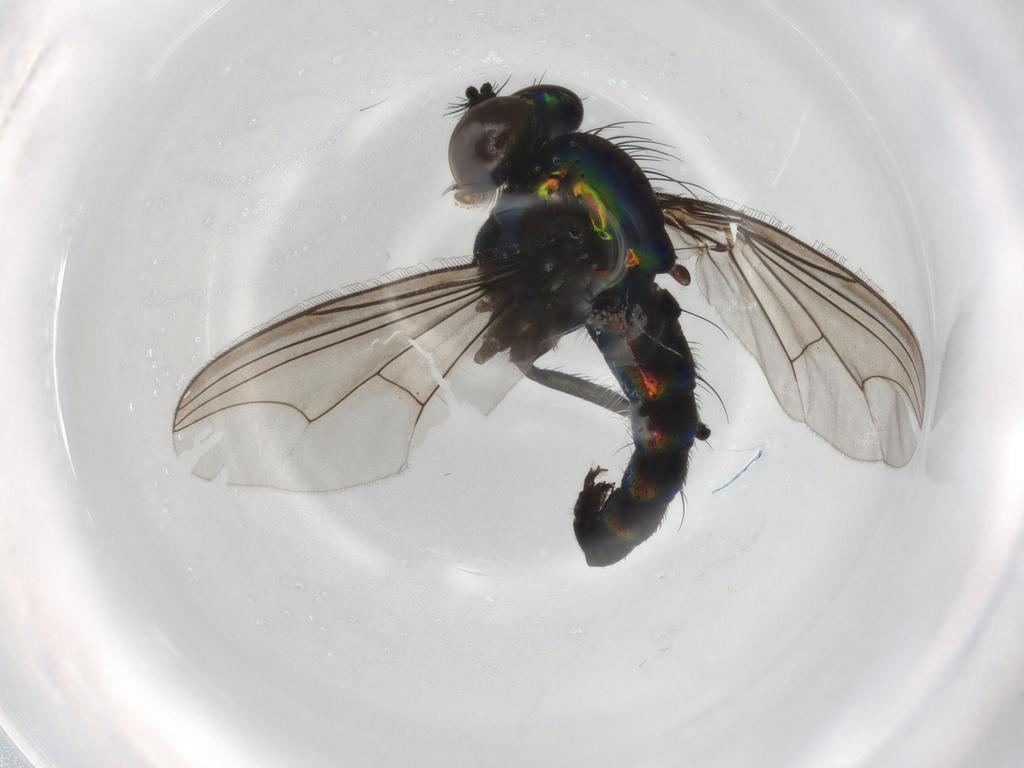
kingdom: Animalia
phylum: Arthropoda
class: Insecta
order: Diptera
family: Dolichopodidae
